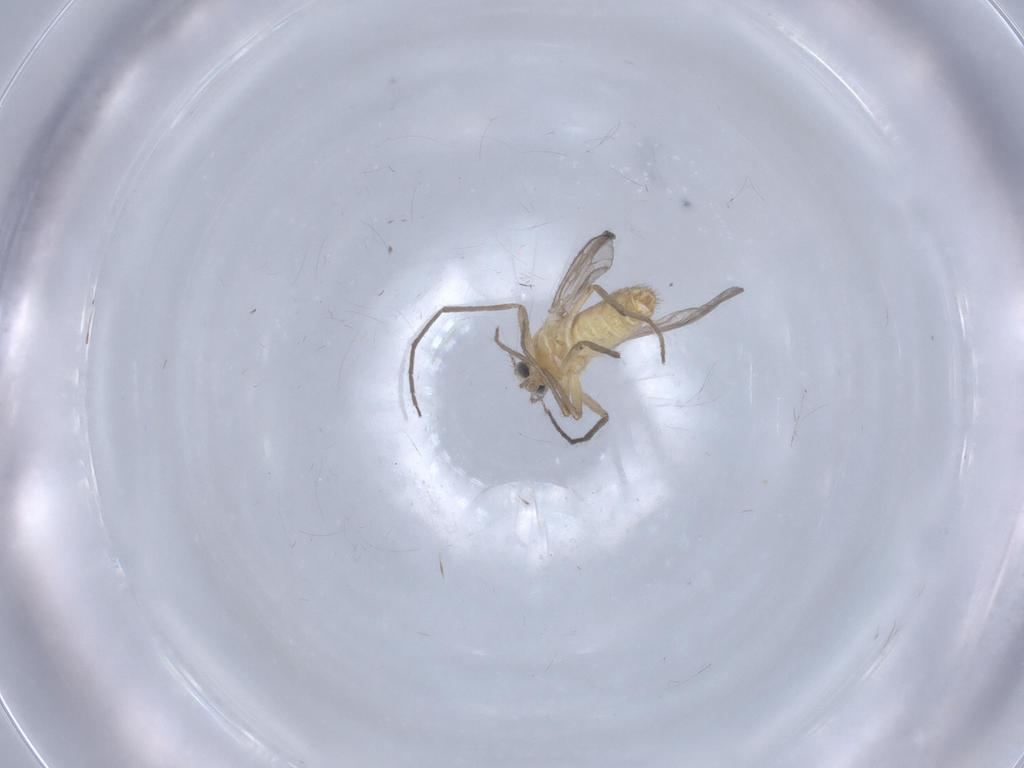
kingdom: Animalia
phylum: Arthropoda
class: Insecta
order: Diptera
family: Chironomidae
